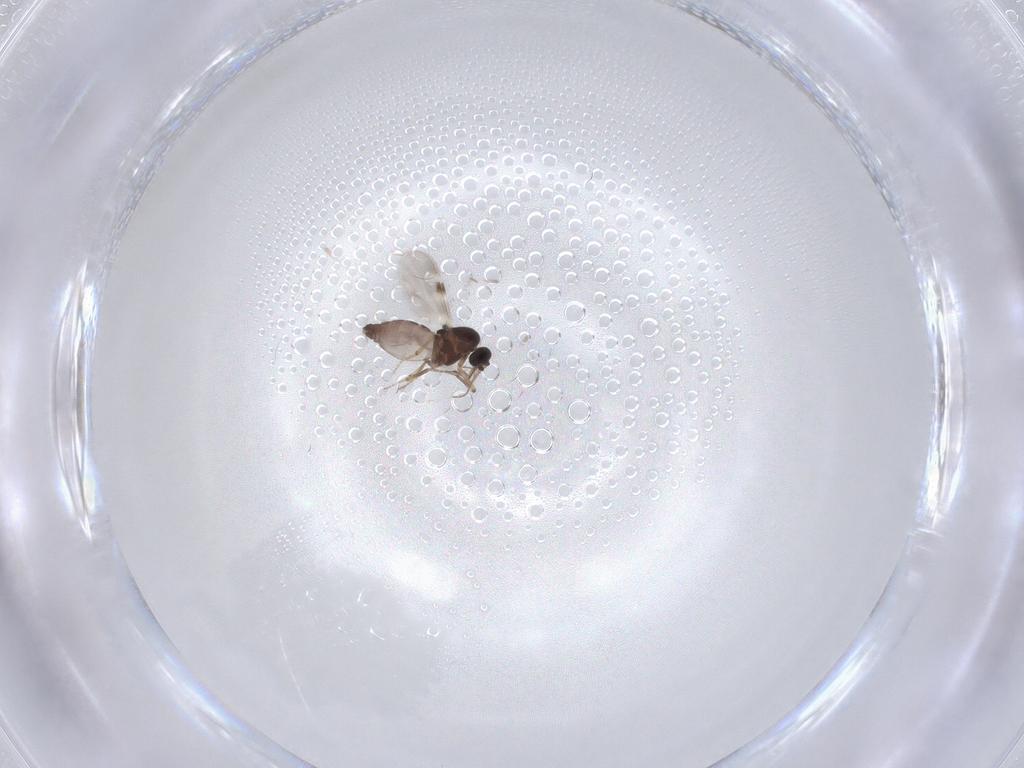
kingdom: Animalia
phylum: Arthropoda
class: Insecta
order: Diptera
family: Psychodidae
